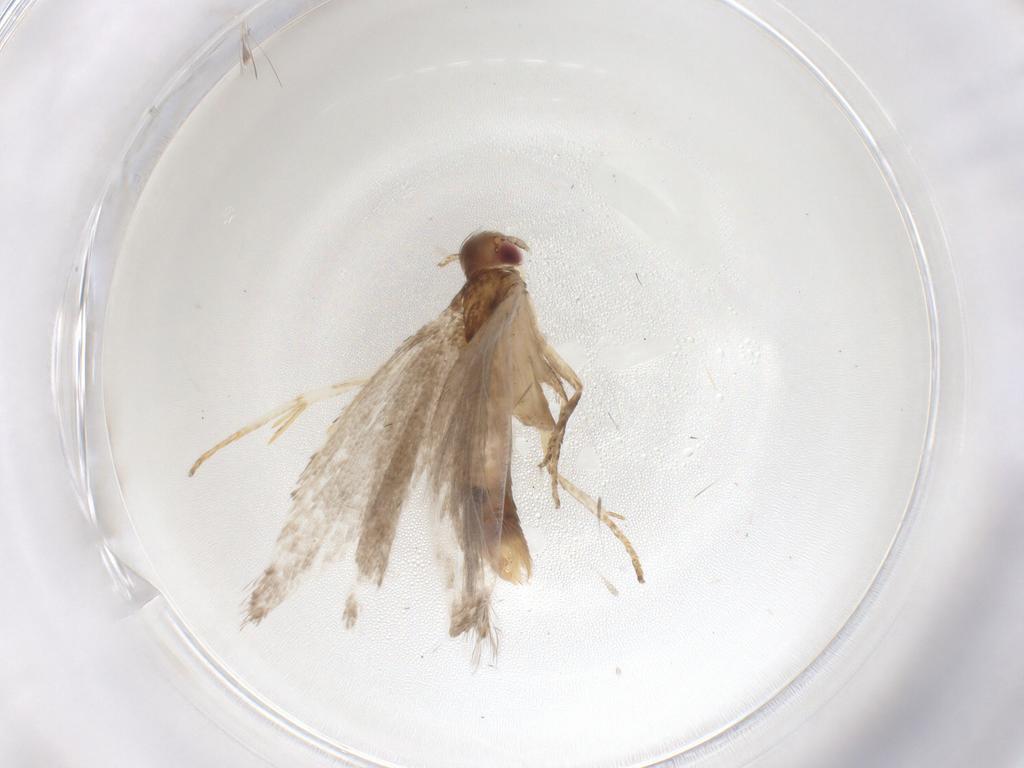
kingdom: Animalia
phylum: Arthropoda
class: Insecta
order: Lepidoptera
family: Gelechiidae
